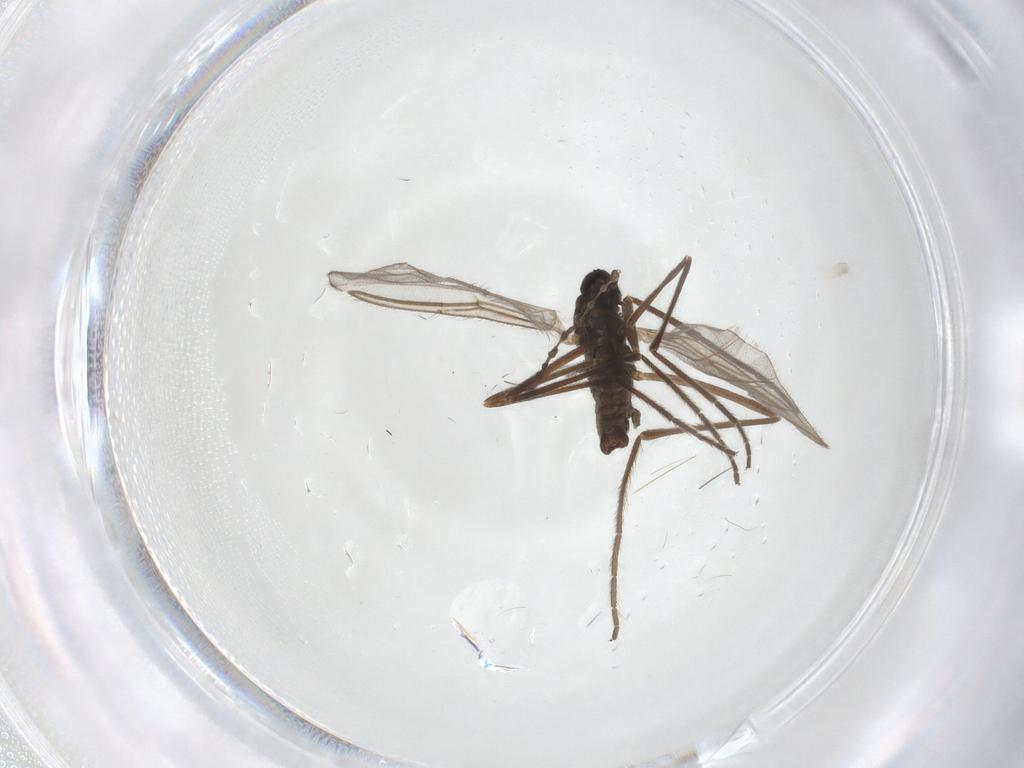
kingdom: Animalia
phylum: Arthropoda
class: Insecta
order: Diptera
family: Cecidomyiidae
